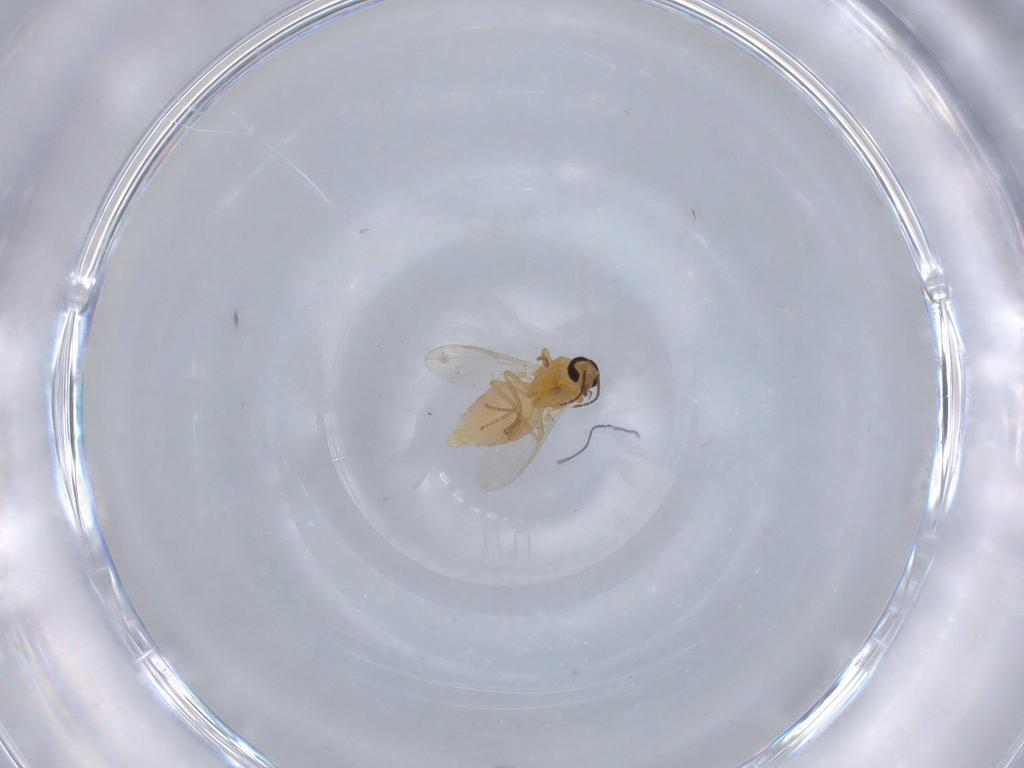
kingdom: Animalia
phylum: Arthropoda
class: Insecta
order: Diptera
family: Ceratopogonidae
